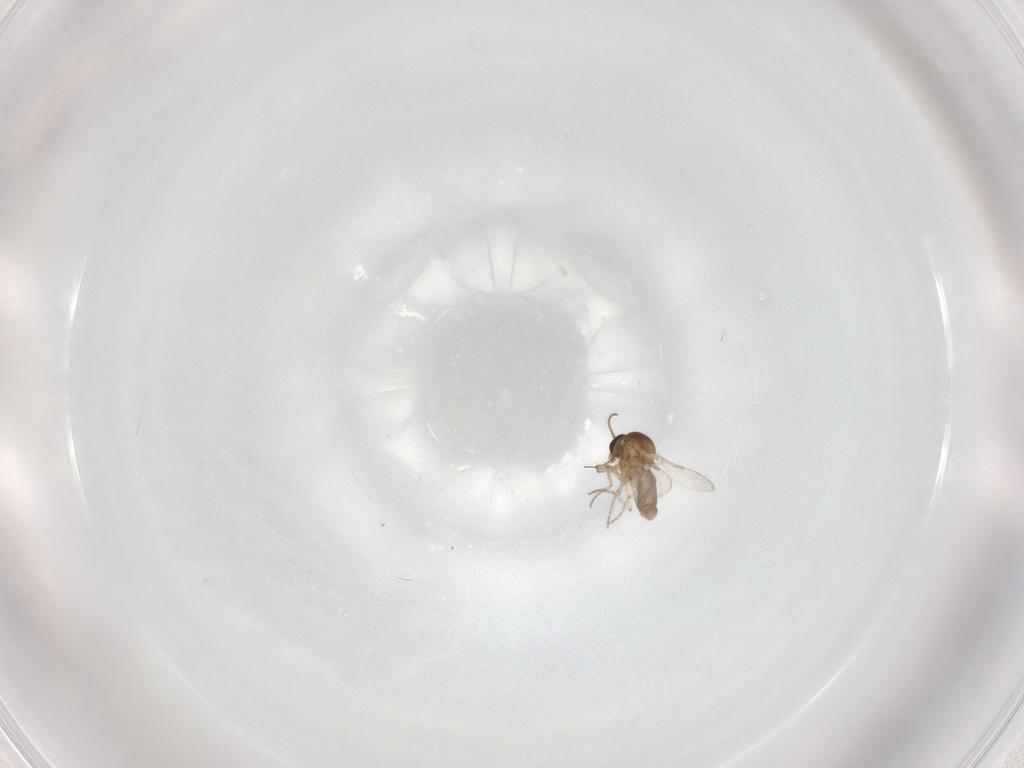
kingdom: Animalia
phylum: Arthropoda
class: Insecta
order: Diptera
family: Ceratopogonidae
